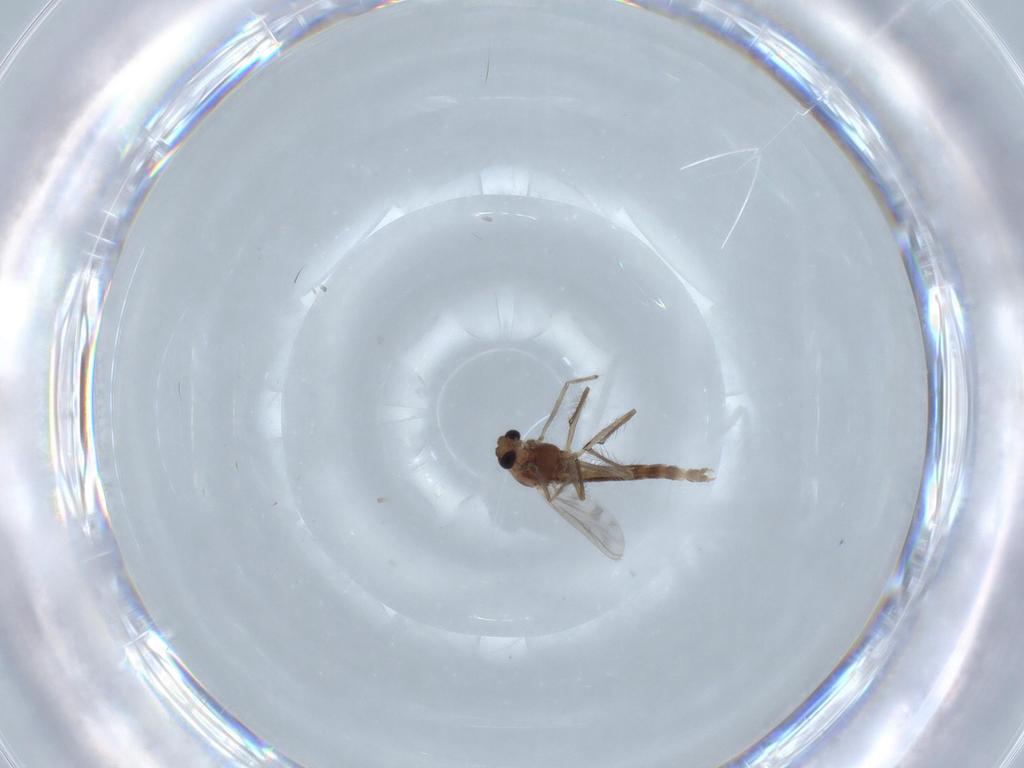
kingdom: Animalia
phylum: Arthropoda
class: Insecta
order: Diptera
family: Chironomidae
